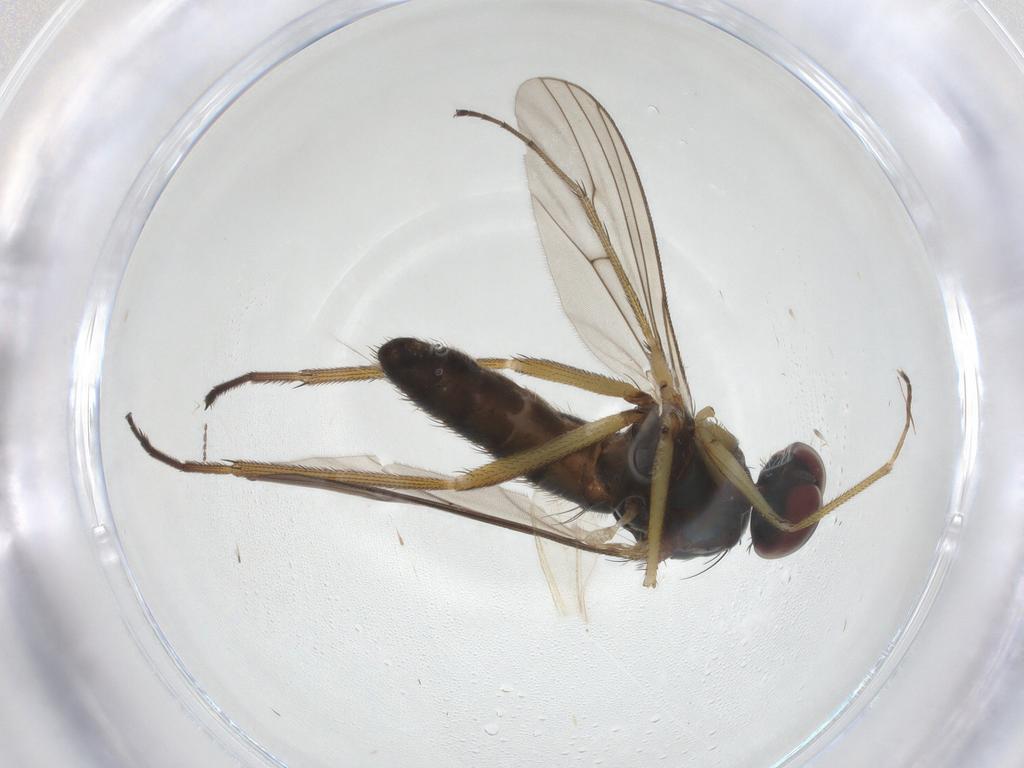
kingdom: Animalia
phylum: Arthropoda
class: Insecta
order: Diptera
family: Dolichopodidae
